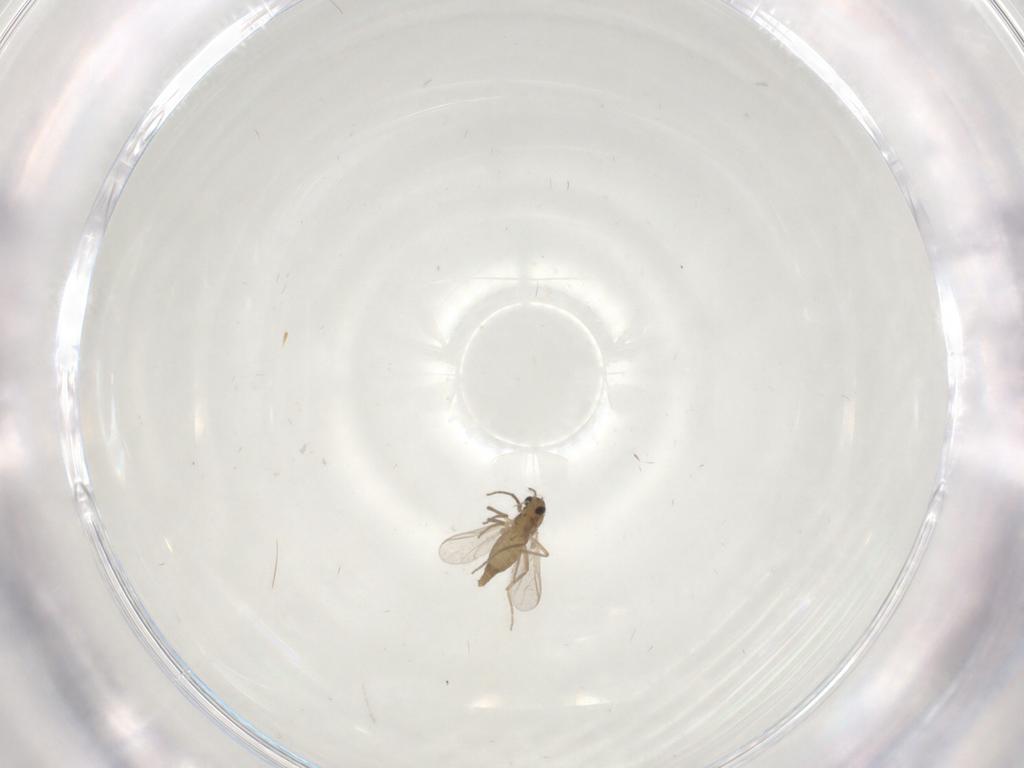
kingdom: Animalia
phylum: Arthropoda
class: Insecta
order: Diptera
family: Chironomidae
